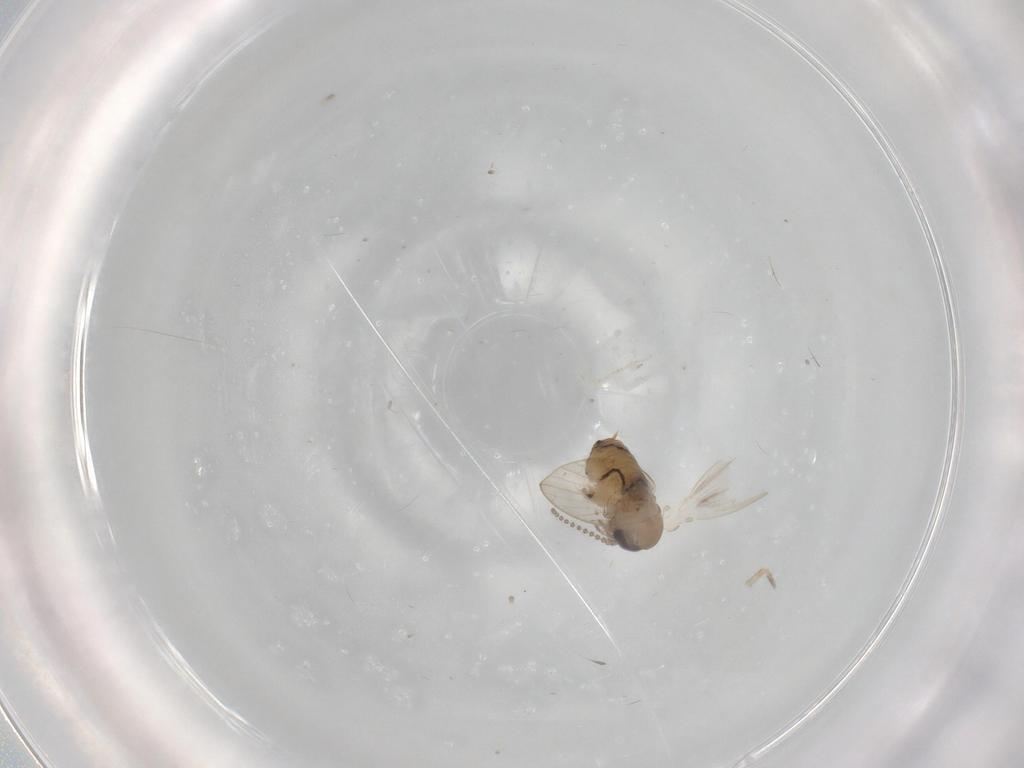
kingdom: Animalia
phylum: Arthropoda
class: Insecta
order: Diptera
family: Psychodidae
